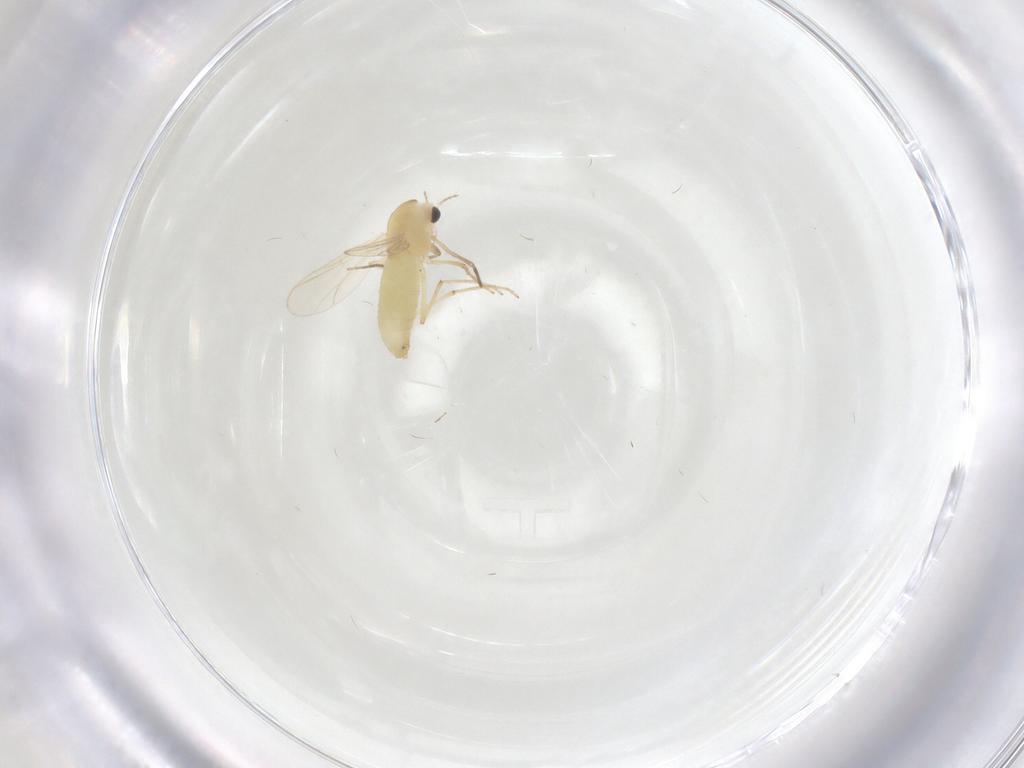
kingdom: Animalia
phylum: Arthropoda
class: Insecta
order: Diptera
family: Chironomidae
